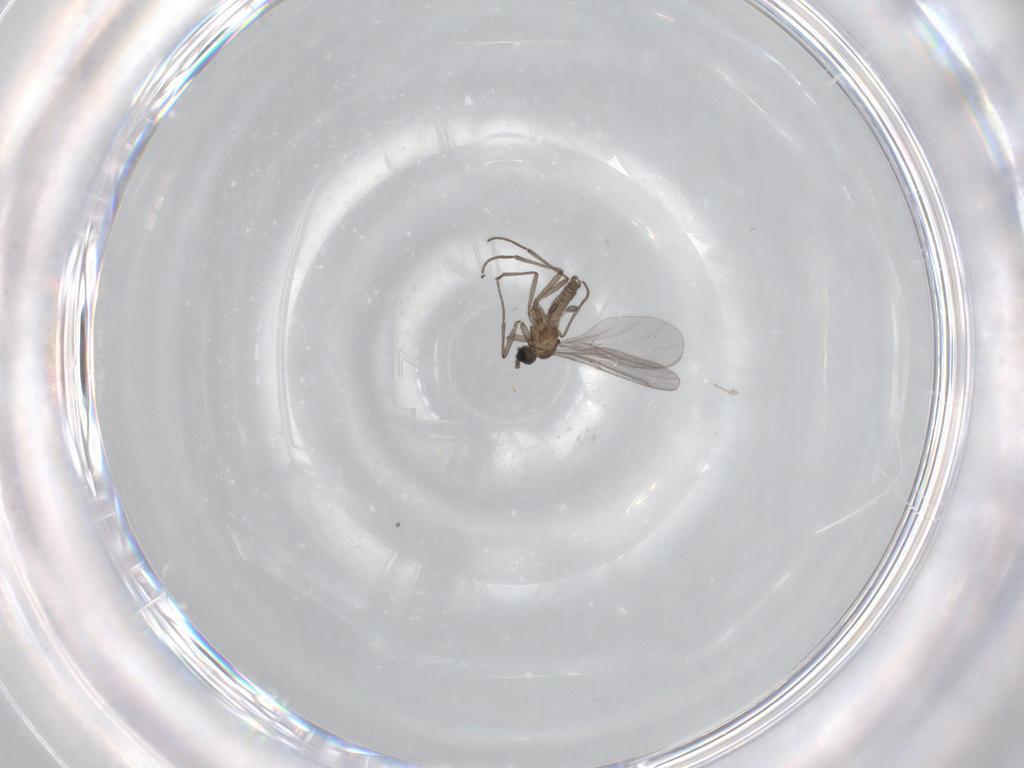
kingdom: Animalia
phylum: Arthropoda
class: Insecta
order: Diptera
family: Sciaridae
